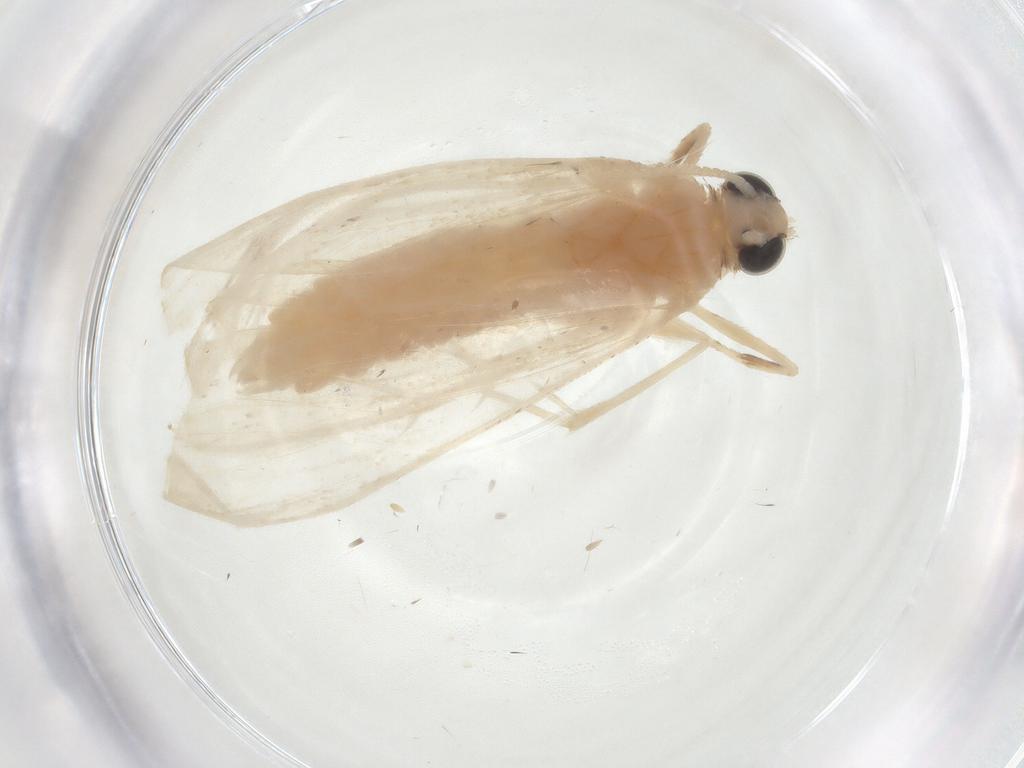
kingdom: Animalia
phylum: Arthropoda
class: Insecta
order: Lepidoptera
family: Crambidae
